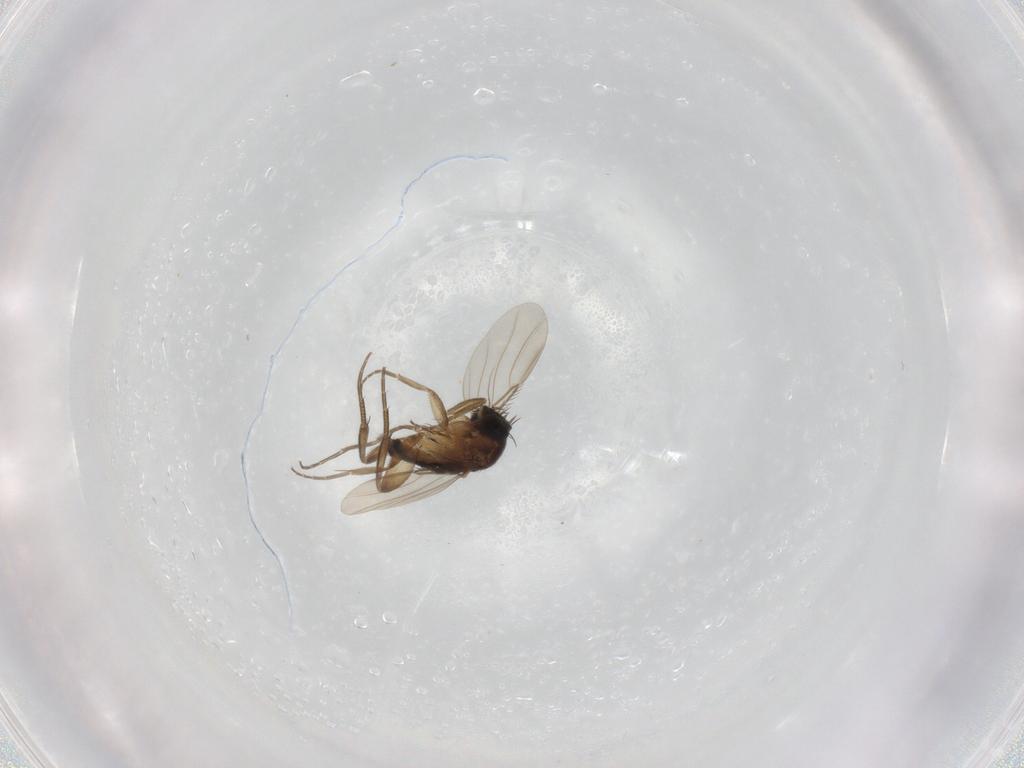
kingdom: Animalia
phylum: Arthropoda
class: Insecta
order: Diptera
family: Phoridae
